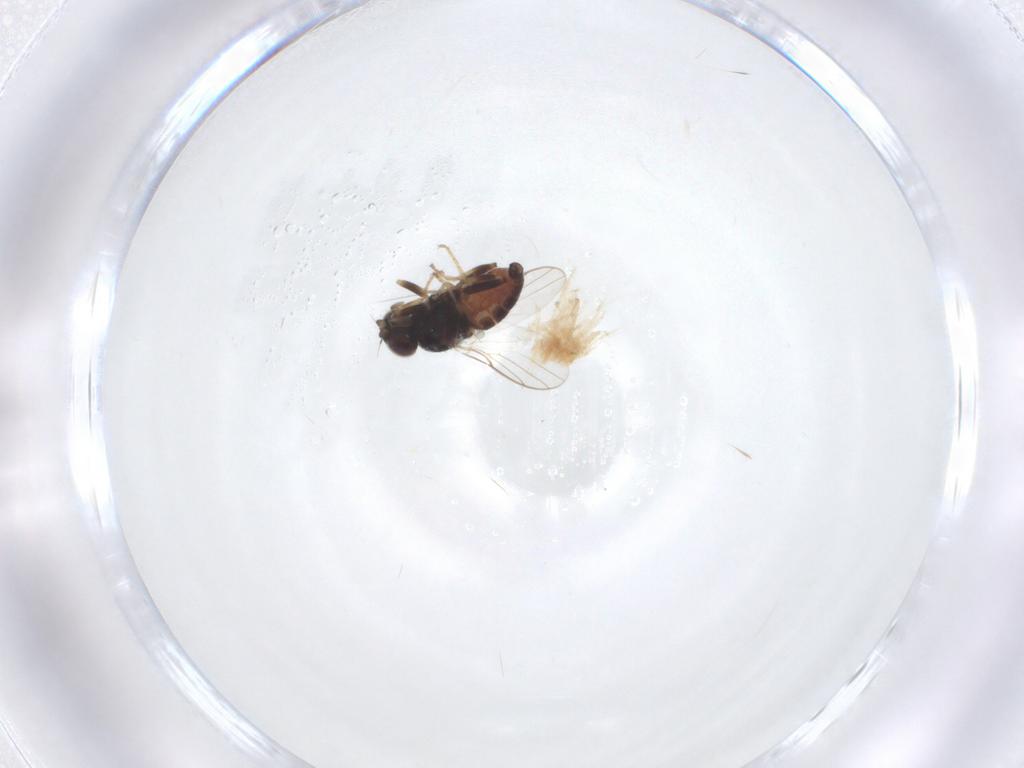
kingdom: Animalia
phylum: Arthropoda
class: Insecta
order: Diptera
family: Chloropidae
